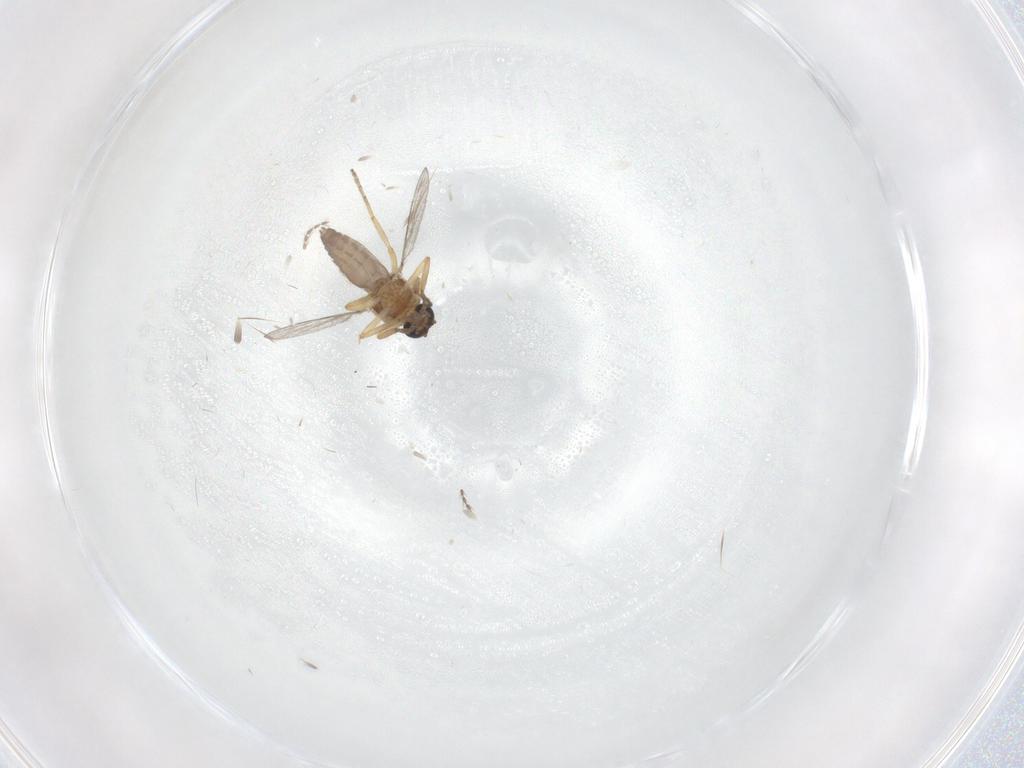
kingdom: Animalia
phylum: Arthropoda
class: Insecta
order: Diptera
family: Psychodidae
